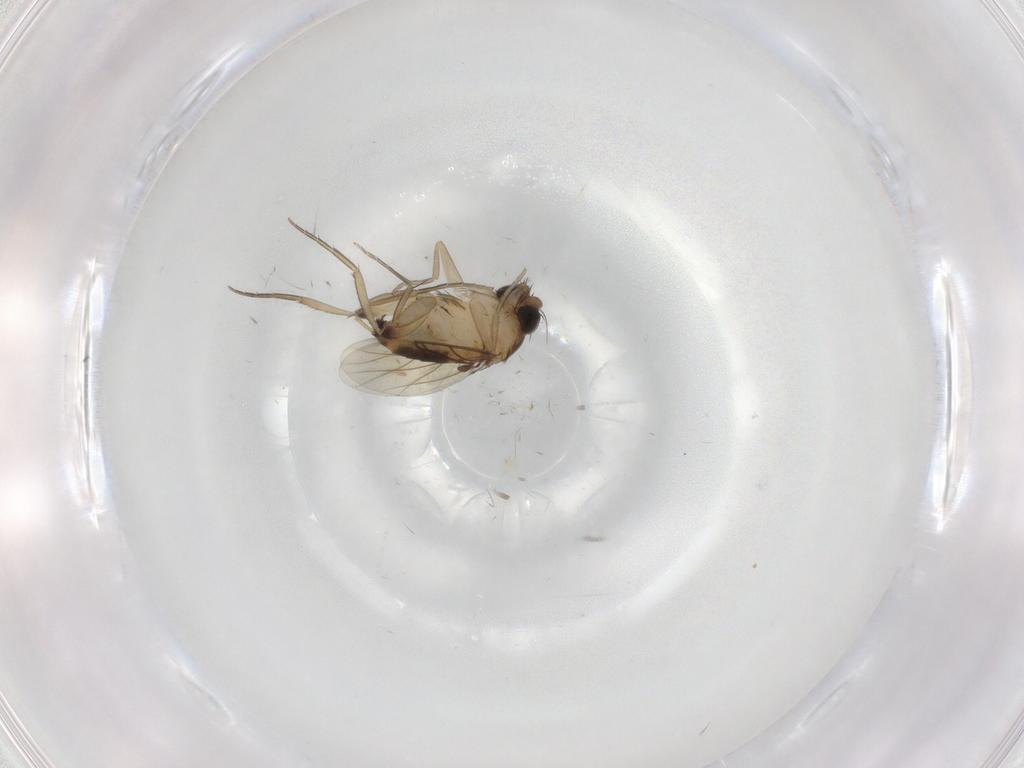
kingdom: Animalia
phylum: Arthropoda
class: Insecta
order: Diptera
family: Phoridae
